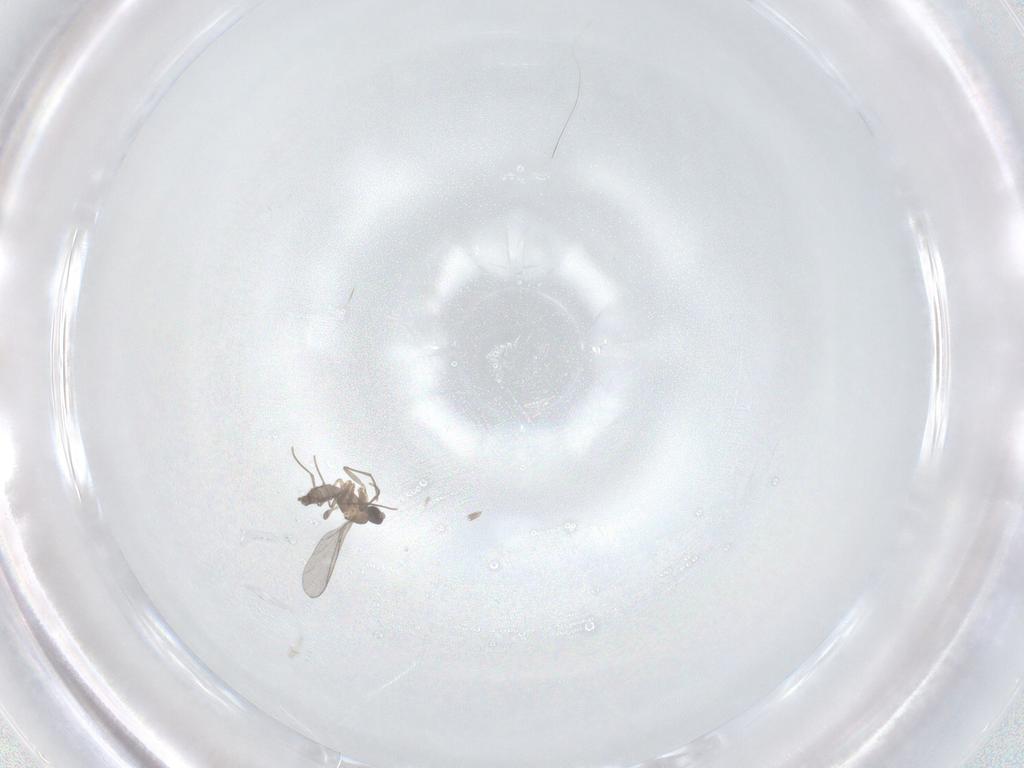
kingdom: Animalia
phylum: Arthropoda
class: Insecta
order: Diptera
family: Sciaridae
